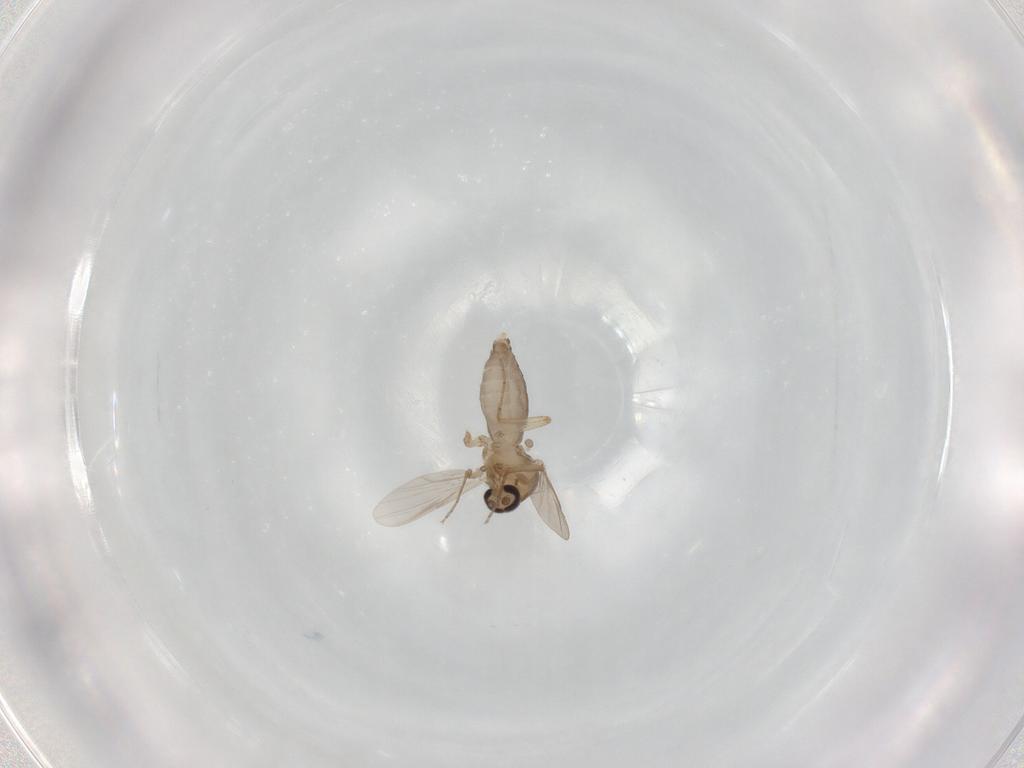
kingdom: Animalia
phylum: Arthropoda
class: Insecta
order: Diptera
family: Ceratopogonidae
